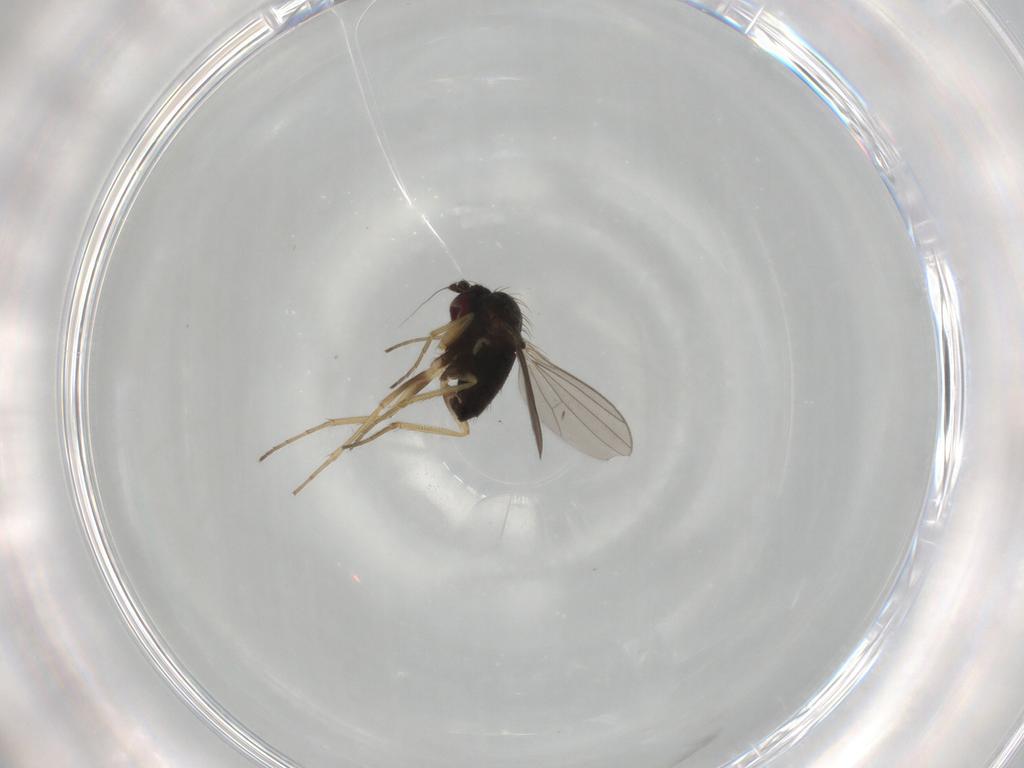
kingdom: Animalia
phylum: Arthropoda
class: Insecta
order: Diptera
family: Dolichopodidae
